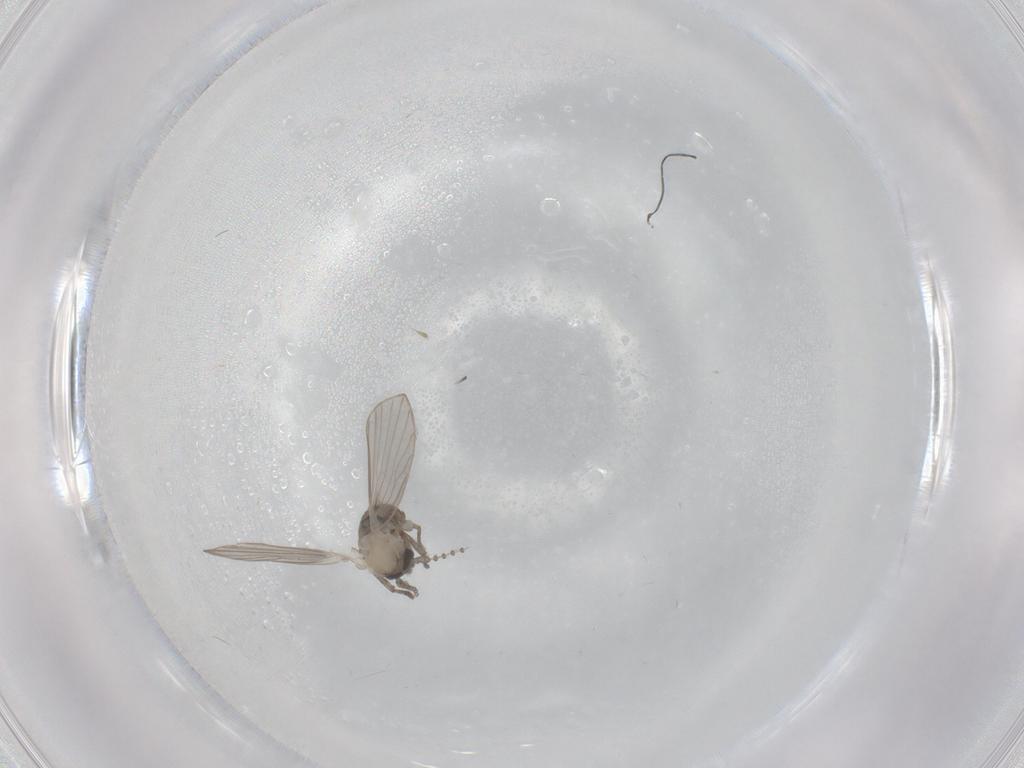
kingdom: Animalia
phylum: Arthropoda
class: Insecta
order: Diptera
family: Psychodidae
